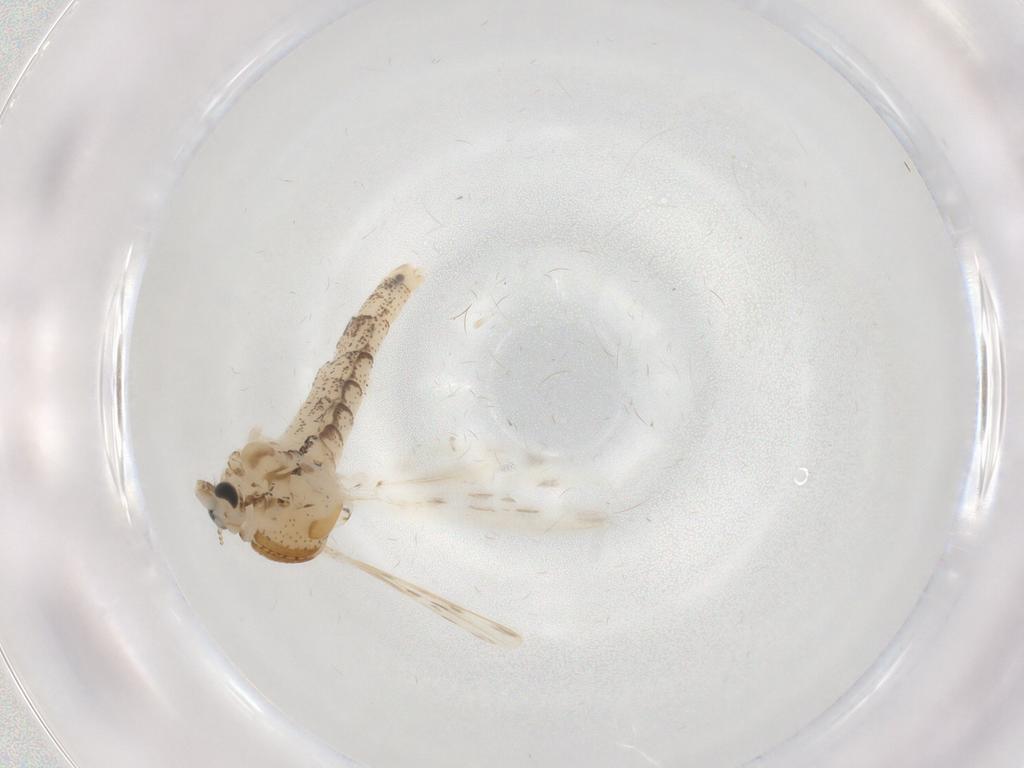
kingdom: Animalia
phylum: Arthropoda
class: Insecta
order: Diptera
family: Chaoboridae
